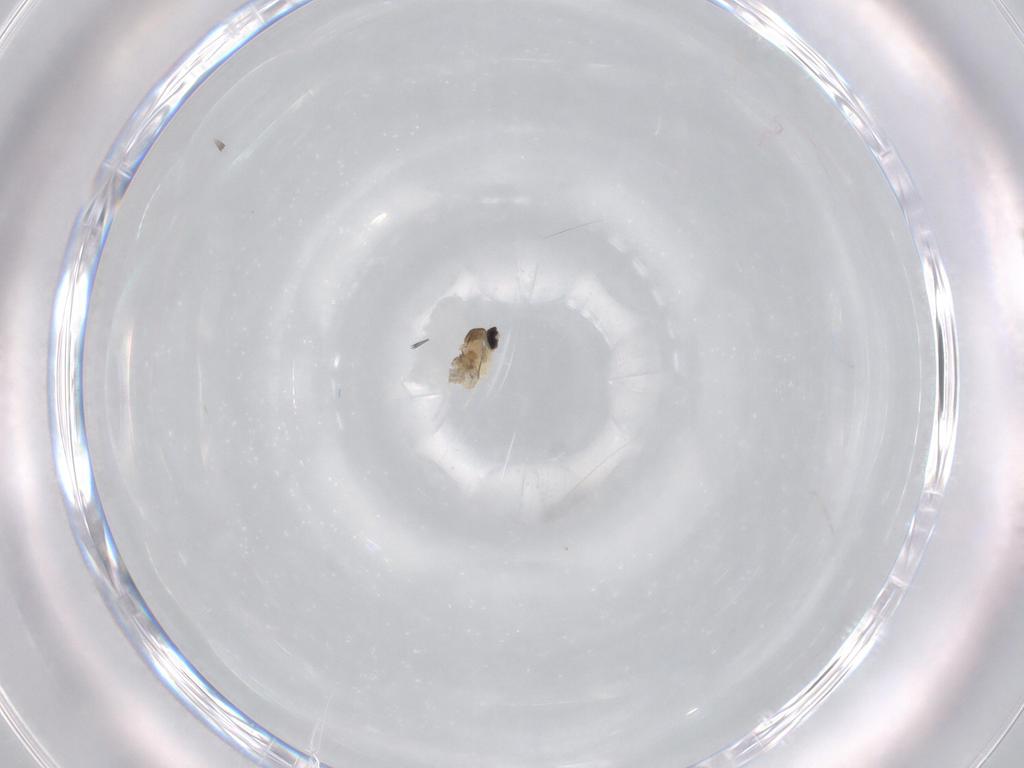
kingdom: Animalia
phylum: Arthropoda
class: Insecta
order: Diptera
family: Cecidomyiidae
